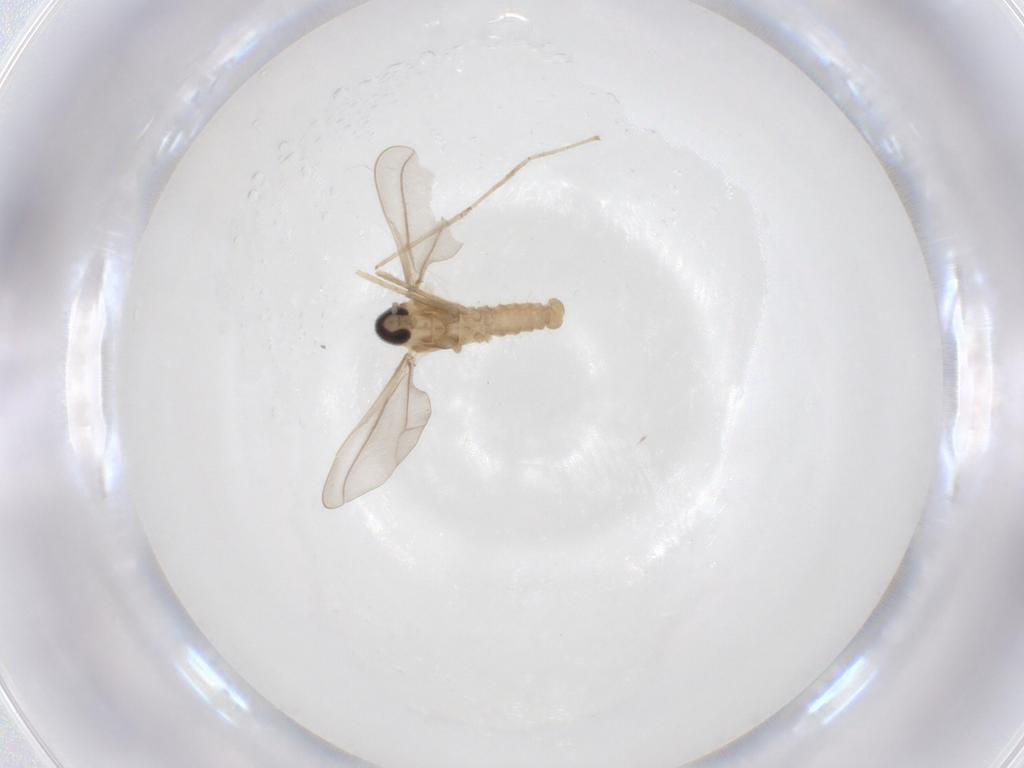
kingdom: Animalia
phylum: Arthropoda
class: Insecta
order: Diptera
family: Cecidomyiidae
